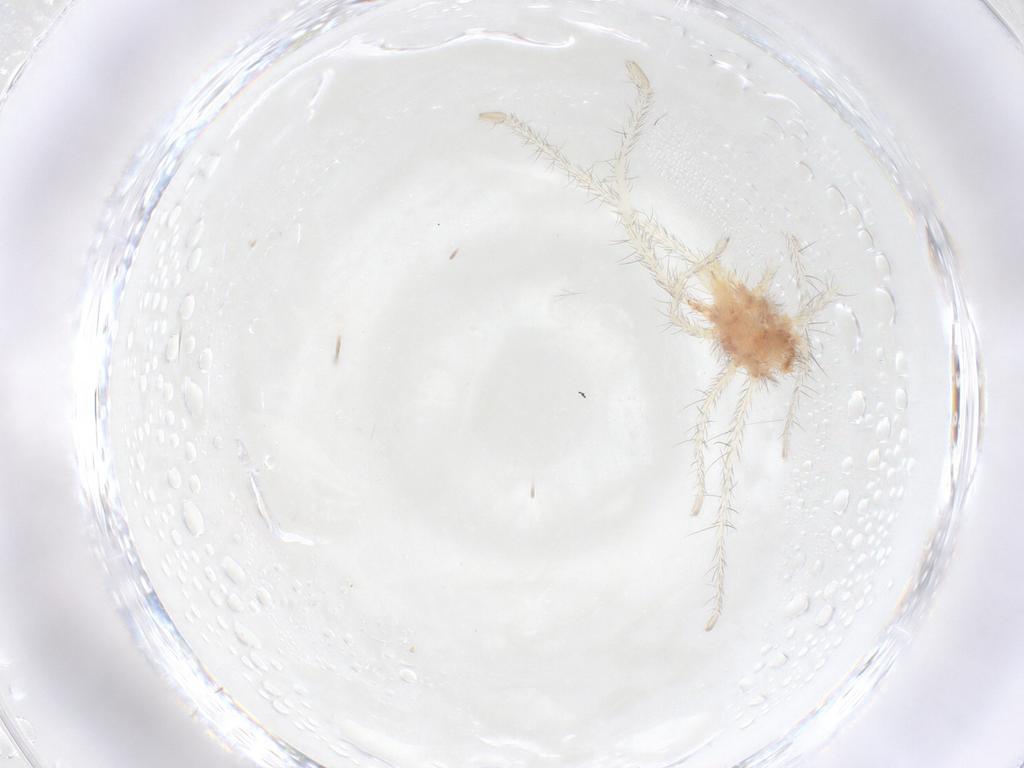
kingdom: Animalia
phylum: Arthropoda
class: Arachnida
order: Trombidiformes
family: Erythraeidae
